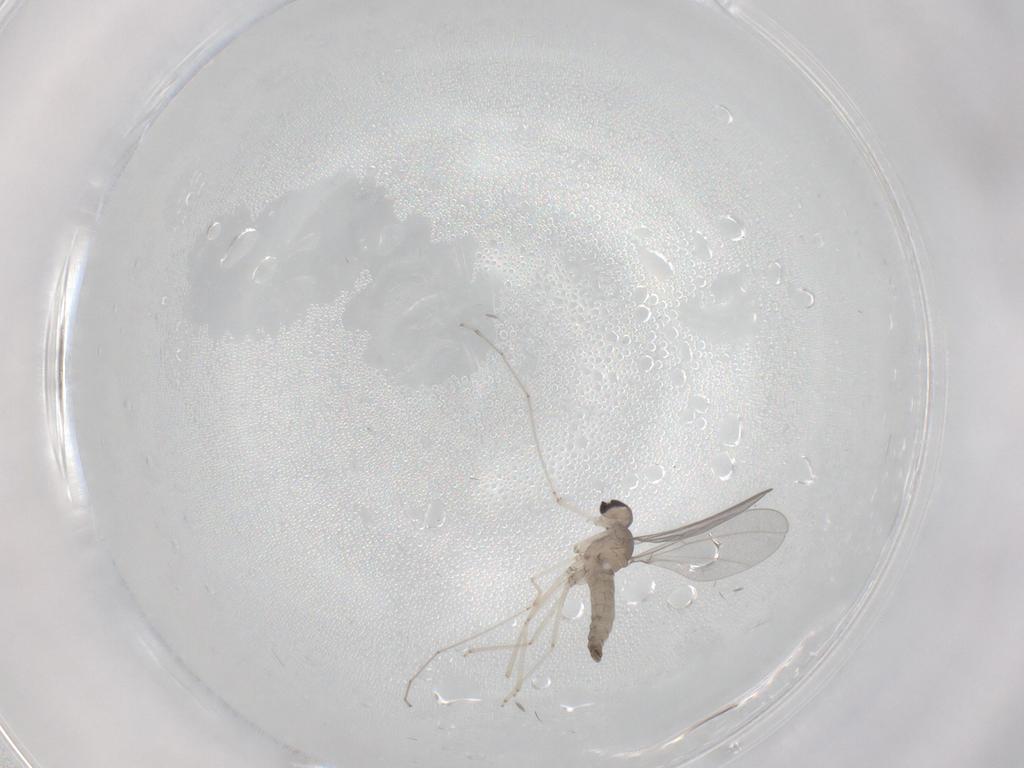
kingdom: Animalia
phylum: Arthropoda
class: Insecta
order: Diptera
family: Cecidomyiidae
